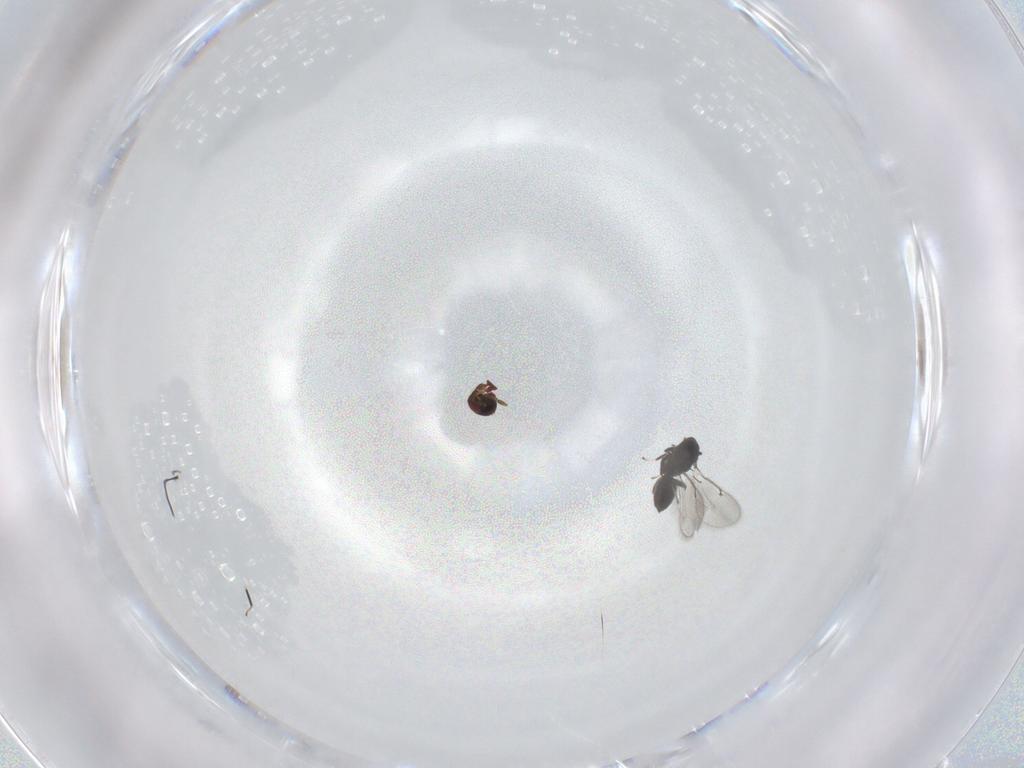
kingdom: Animalia
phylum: Arthropoda
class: Insecta
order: Hymenoptera
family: Eulophidae
